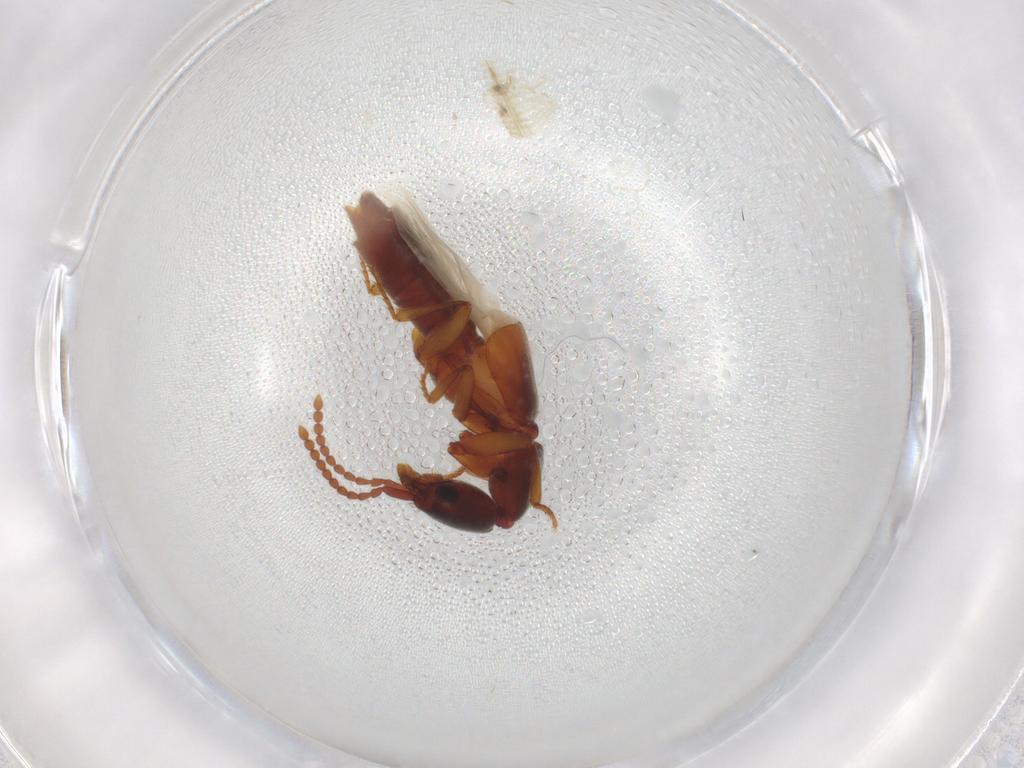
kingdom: Animalia
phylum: Arthropoda
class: Insecta
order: Coleoptera
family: Staphylinidae
